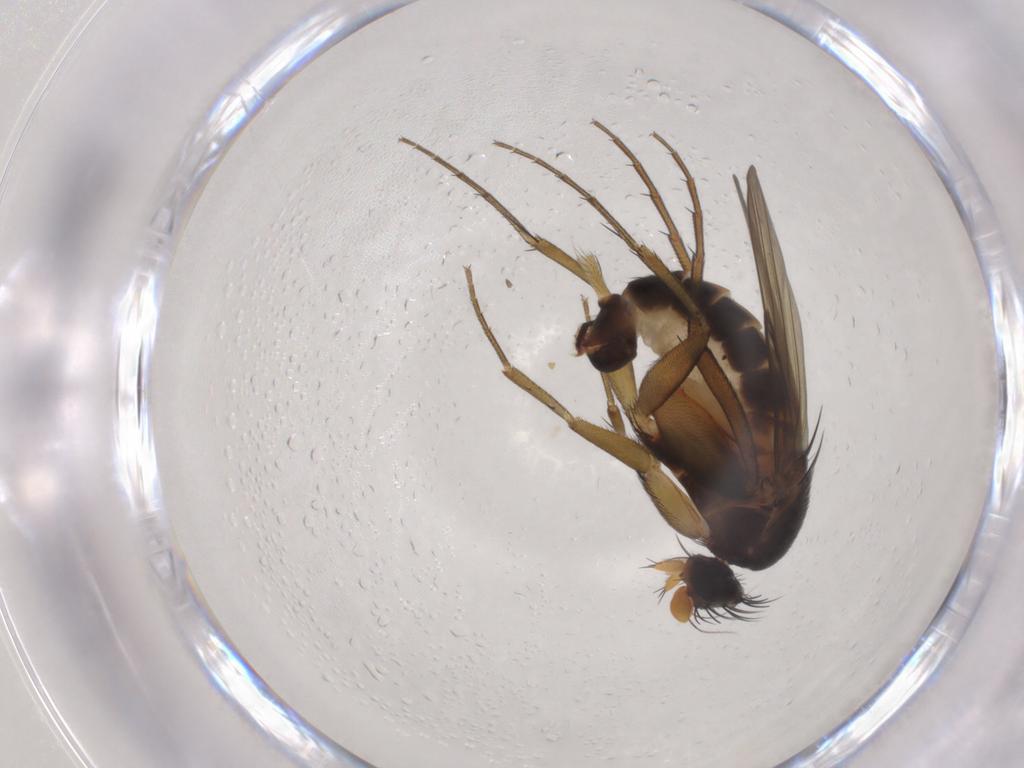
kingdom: Animalia
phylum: Arthropoda
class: Insecta
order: Diptera
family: Phoridae
